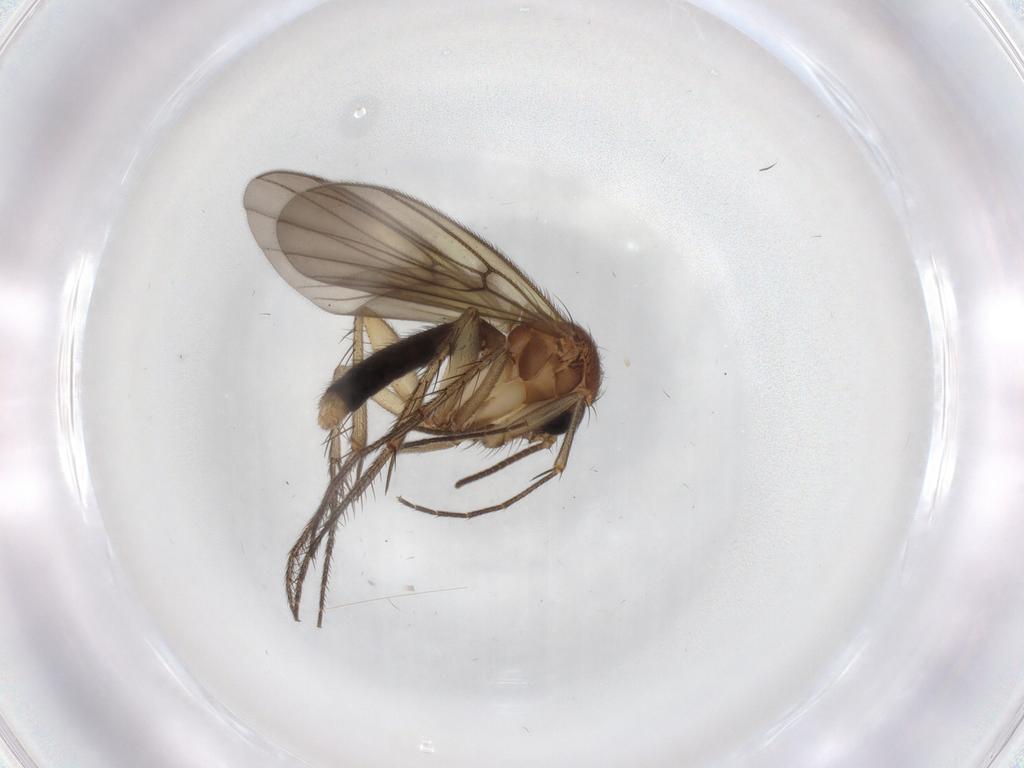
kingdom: Animalia
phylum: Arthropoda
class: Insecta
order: Diptera
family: Mycetophilidae
